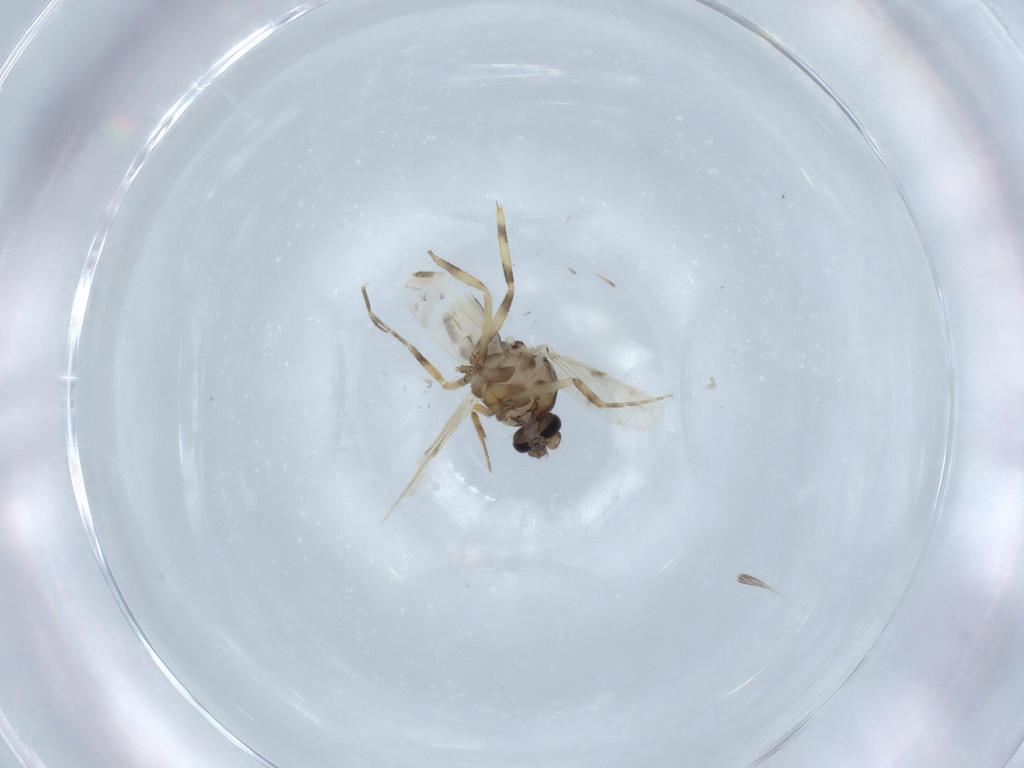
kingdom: Animalia
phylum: Arthropoda
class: Insecta
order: Diptera
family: Ceratopogonidae
